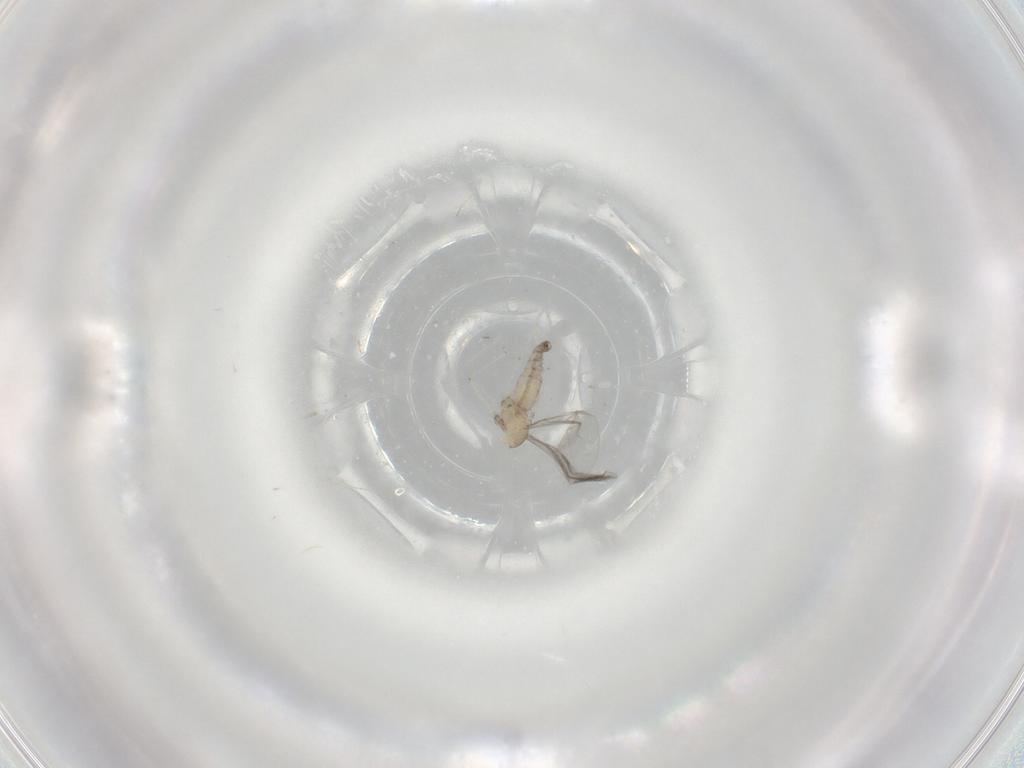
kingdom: Animalia
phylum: Arthropoda
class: Insecta
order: Diptera
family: Cecidomyiidae
